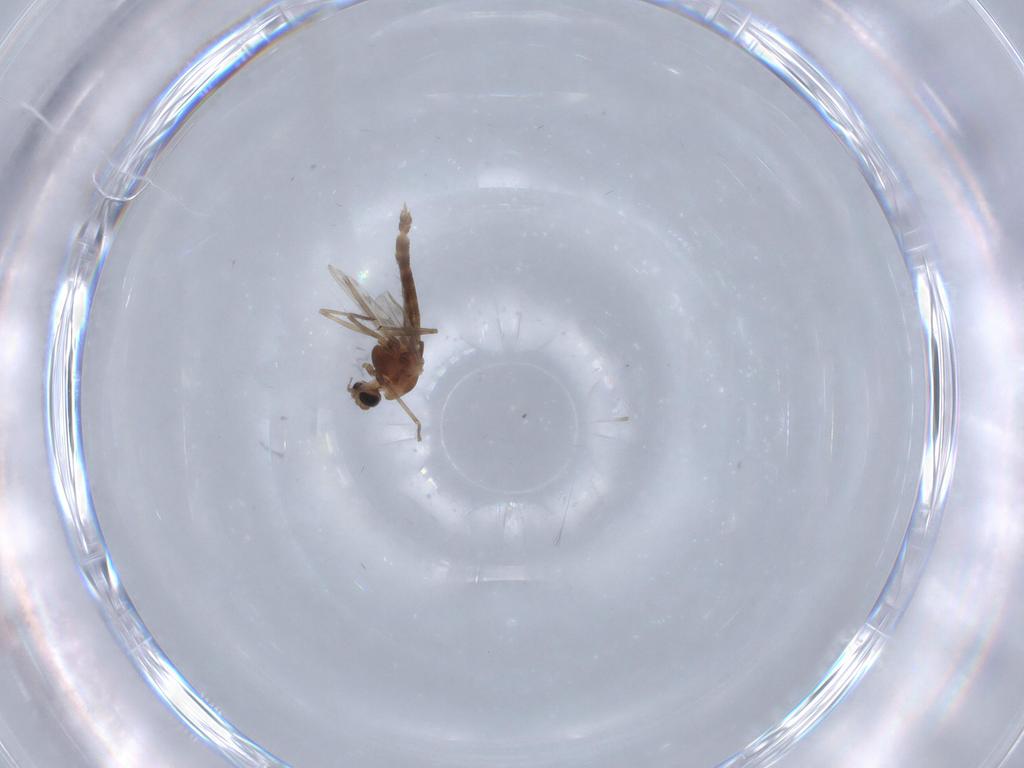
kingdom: Animalia
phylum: Arthropoda
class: Insecta
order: Diptera
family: Chironomidae
